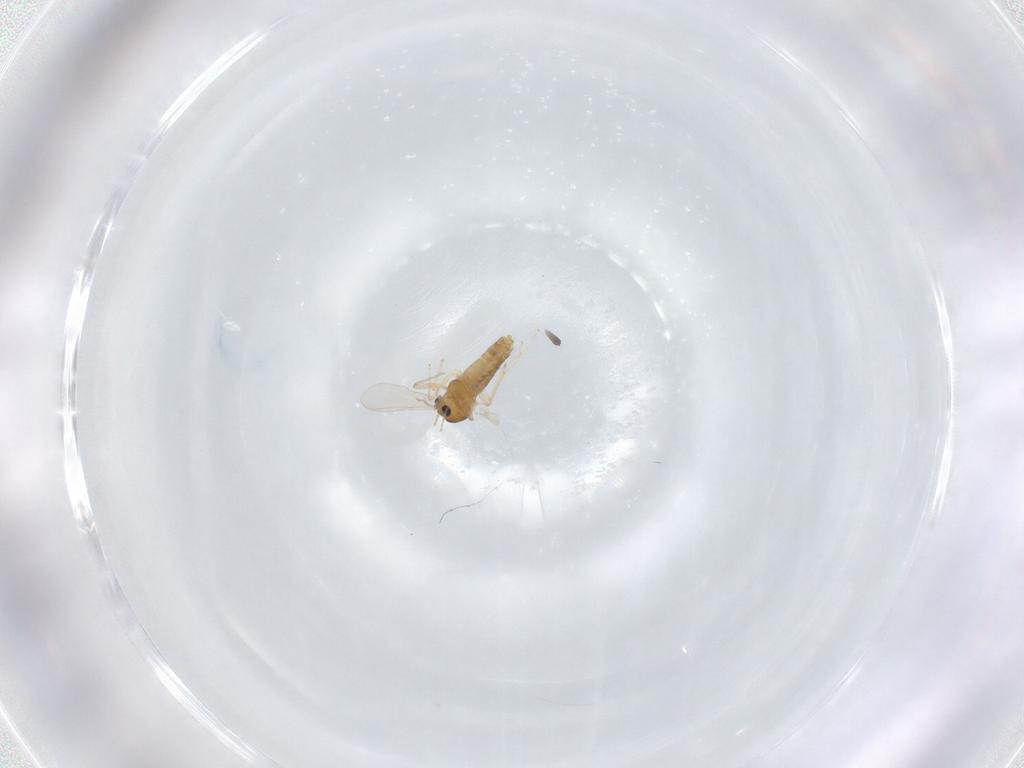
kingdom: Animalia
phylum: Arthropoda
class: Insecta
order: Diptera
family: Chironomidae
